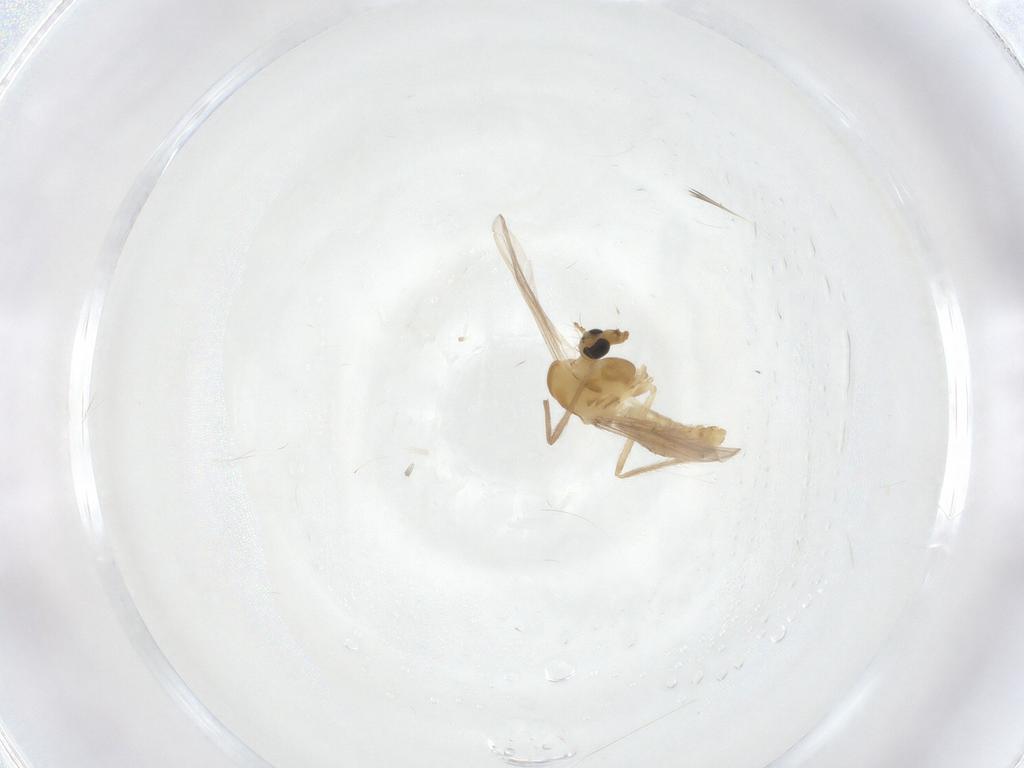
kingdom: Animalia
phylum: Arthropoda
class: Insecta
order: Diptera
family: Chironomidae
